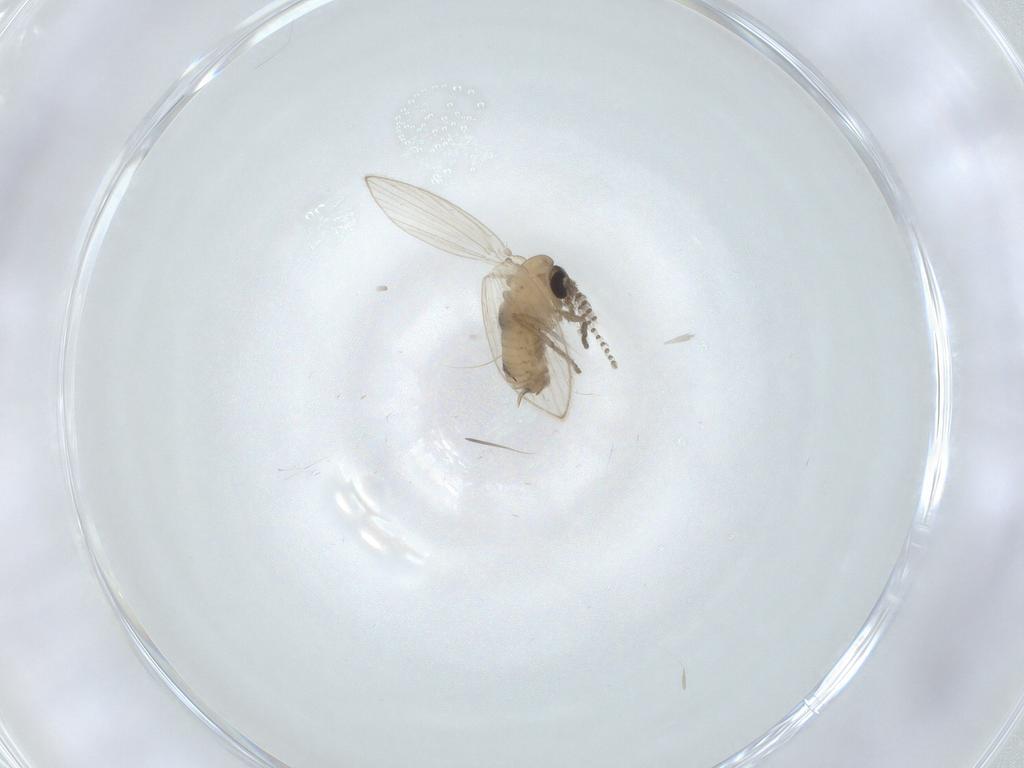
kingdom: Animalia
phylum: Arthropoda
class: Insecta
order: Diptera
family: Psychodidae
